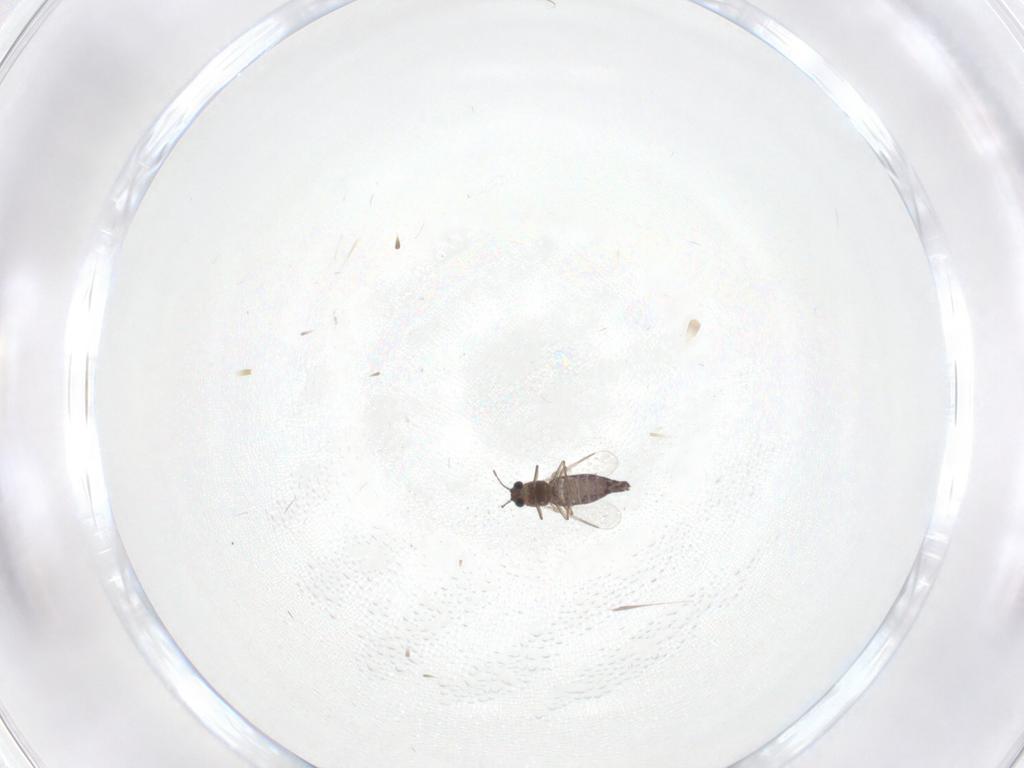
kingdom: Animalia
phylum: Arthropoda
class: Insecta
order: Diptera
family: Chironomidae
